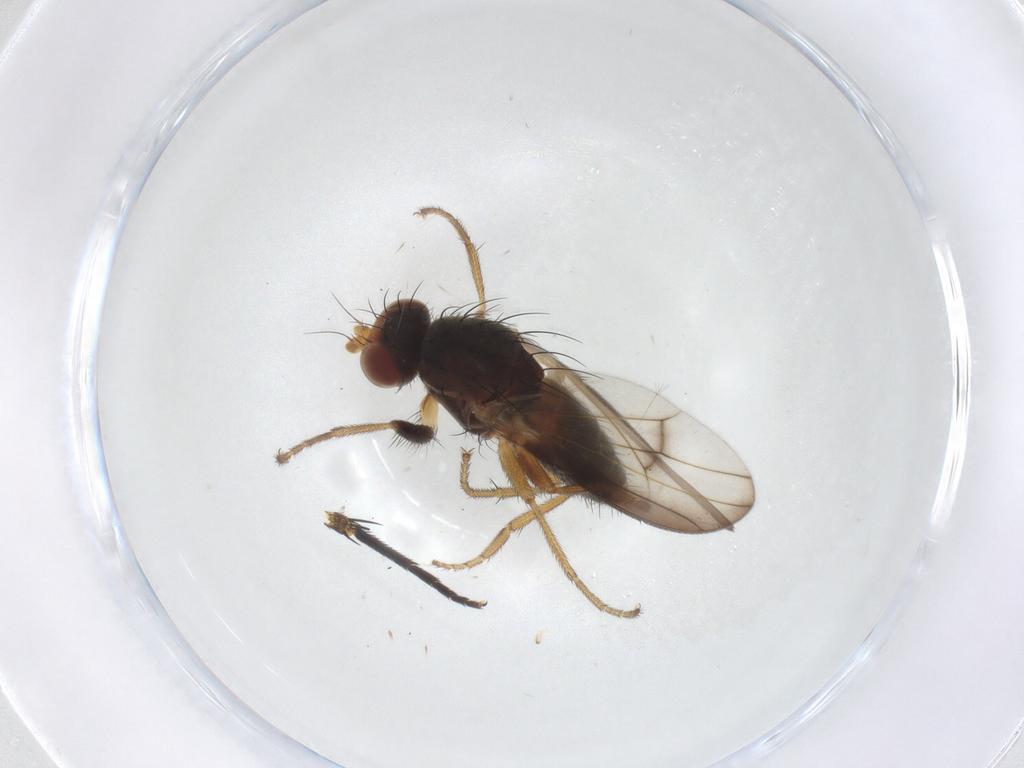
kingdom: Animalia
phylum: Arthropoda
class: Insecta
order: Diptera
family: Heleomyzidae
